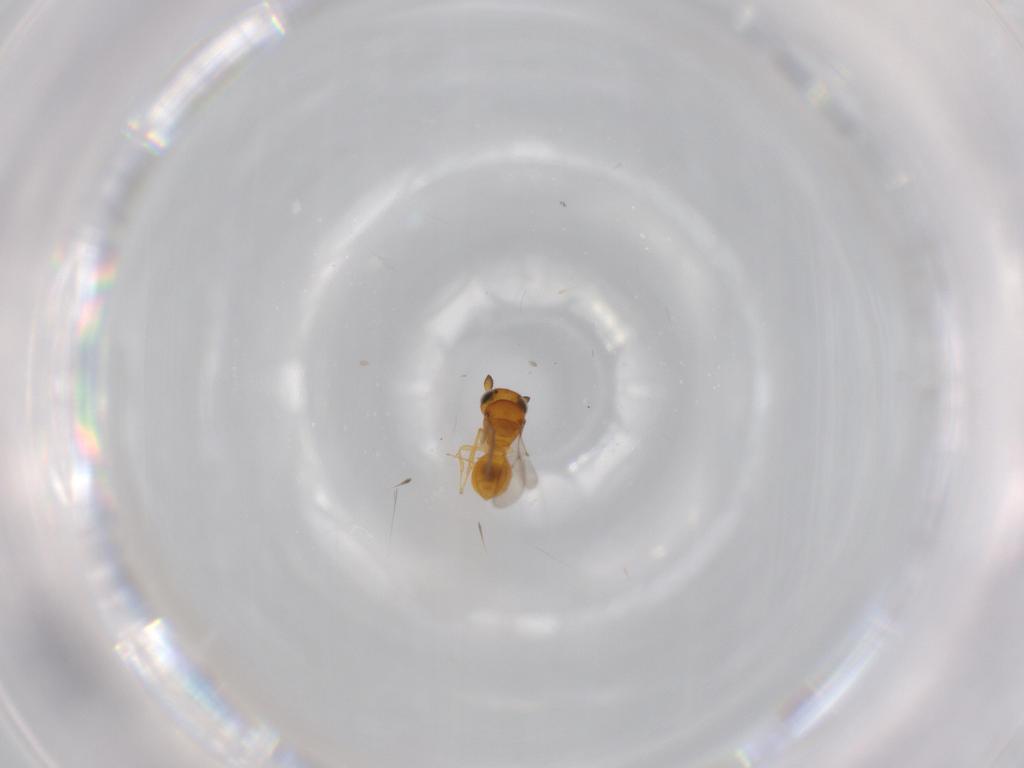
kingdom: Animalia
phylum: Arthropoda
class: Insecta
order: Hymenoptera
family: Scelionidae
